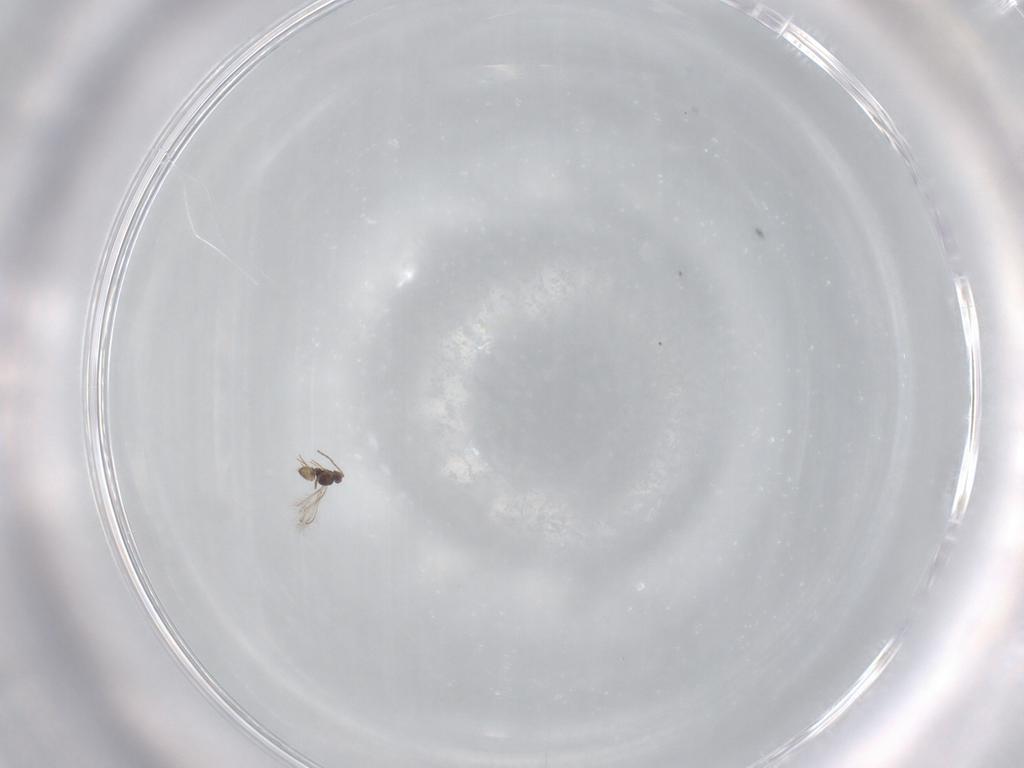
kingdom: Animalia
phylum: Arthropoda
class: Insecta
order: Hymenoptera
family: Mymaridae
